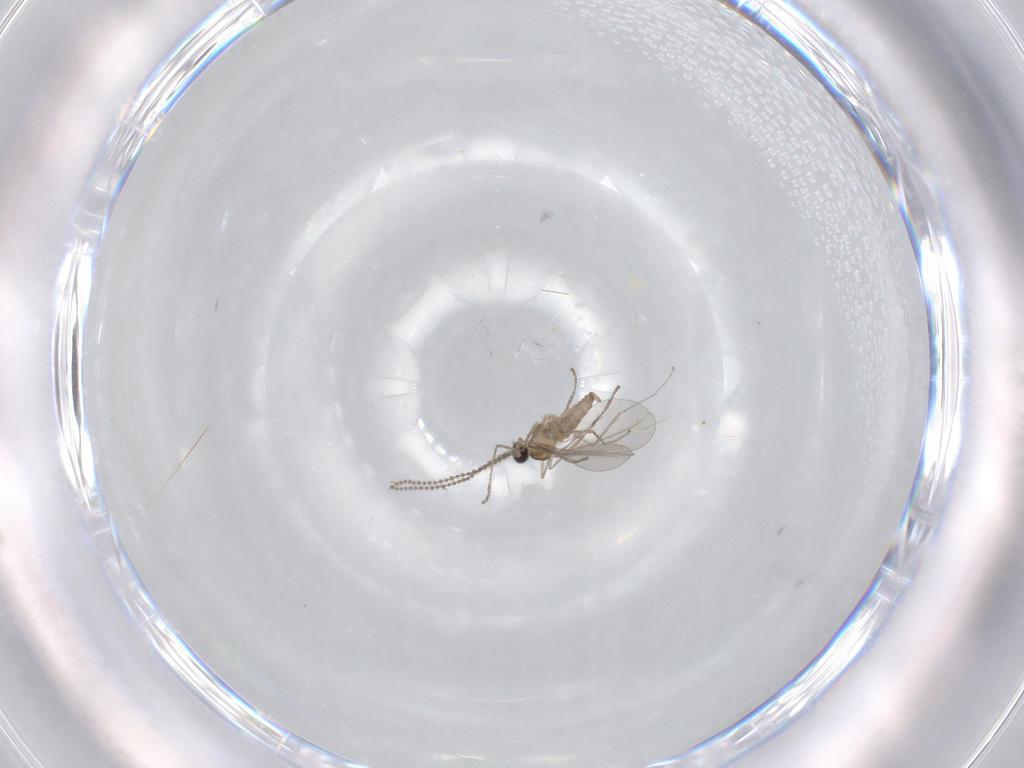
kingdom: Animalia
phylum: Arthropoda
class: Insecta
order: Diptera
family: Cecidomyiidae
